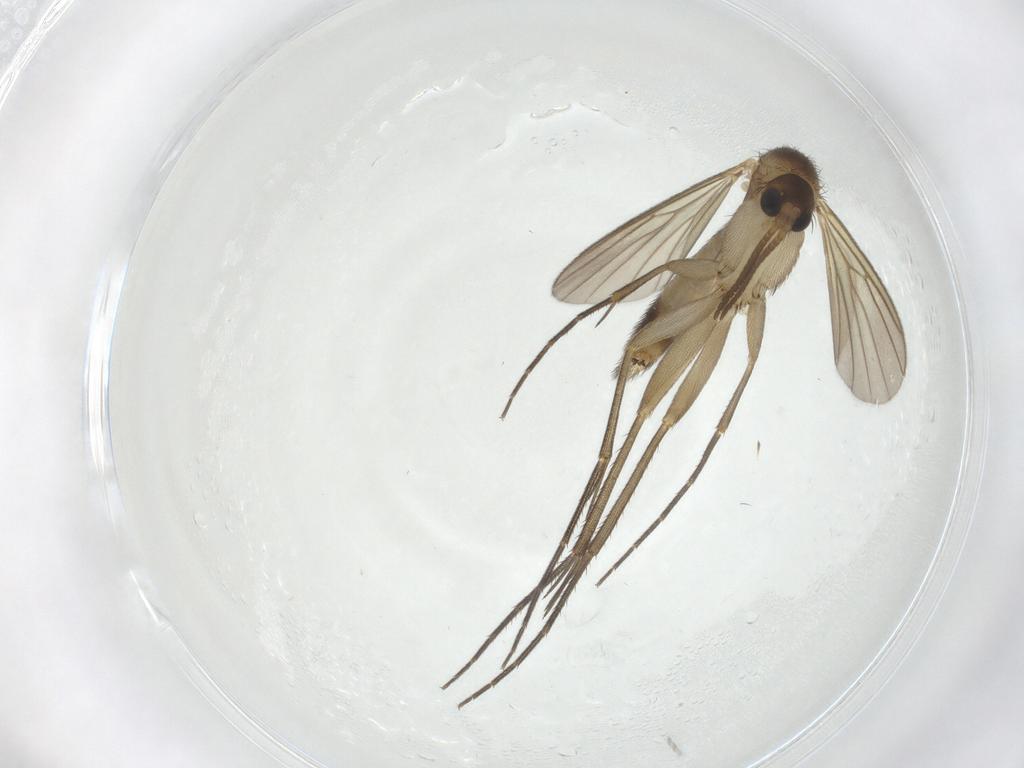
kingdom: Animalia
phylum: Arthropoda
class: Insecta
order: Diptera
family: Mycetophilidae
